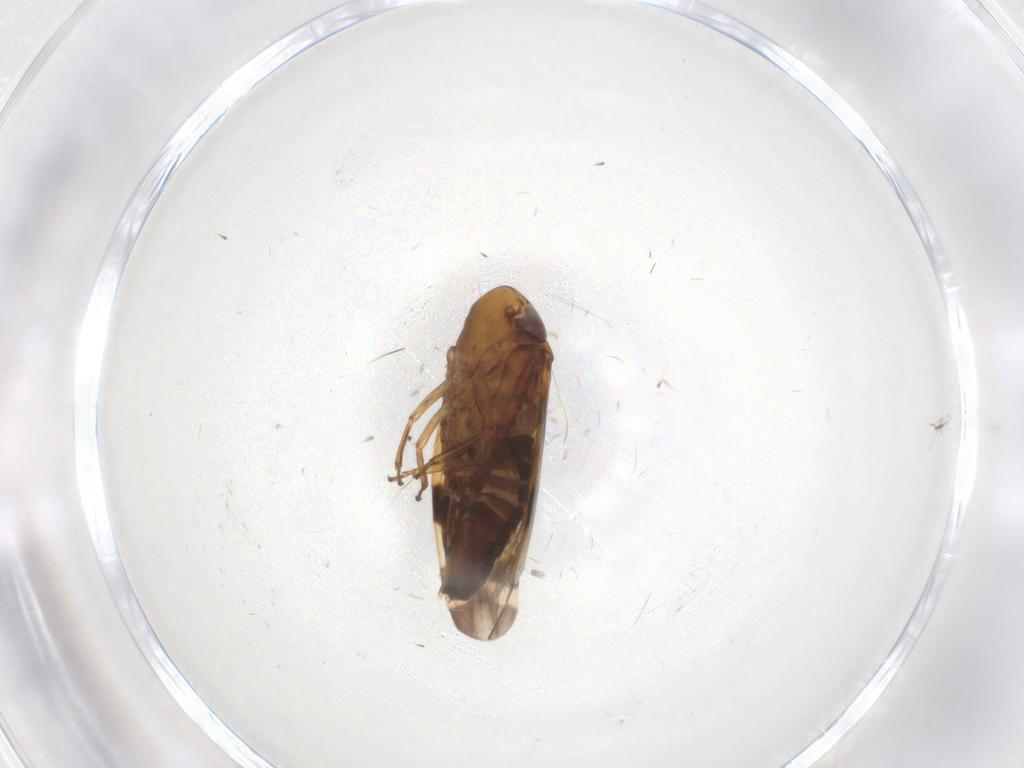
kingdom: Animalia
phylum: Arthropoda
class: Insecta
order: Hemiptera
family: Cicadellidae
